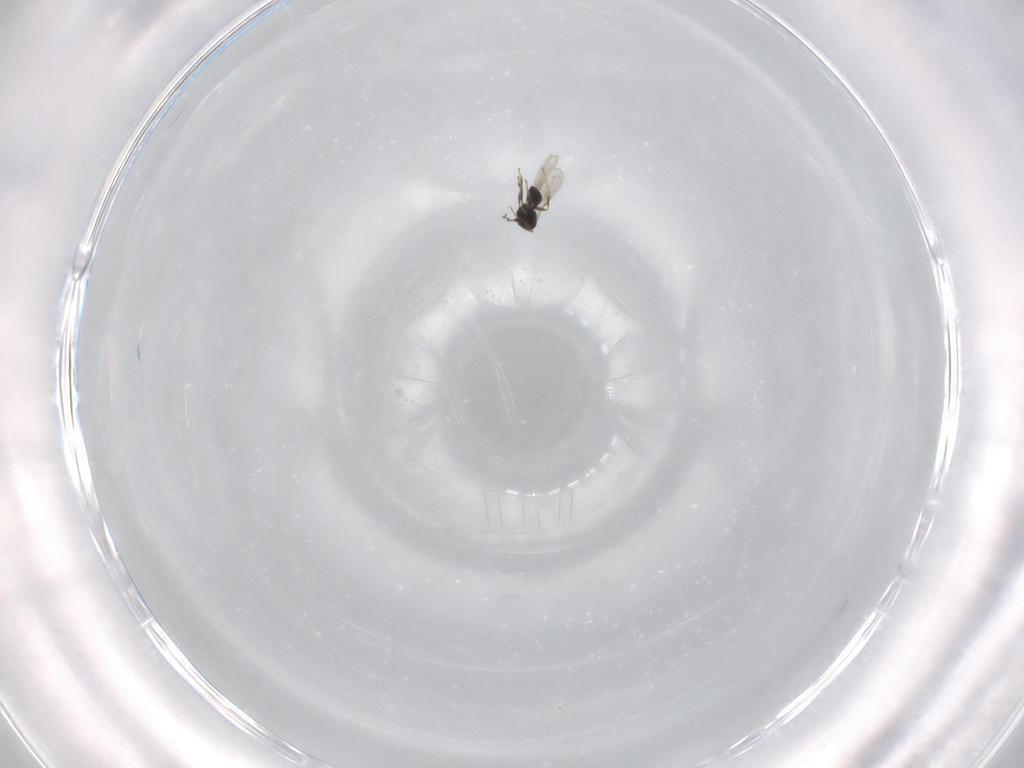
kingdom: Animalia
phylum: Arthropoda
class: Insecta
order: Hymenoptera
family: Scelionidae
